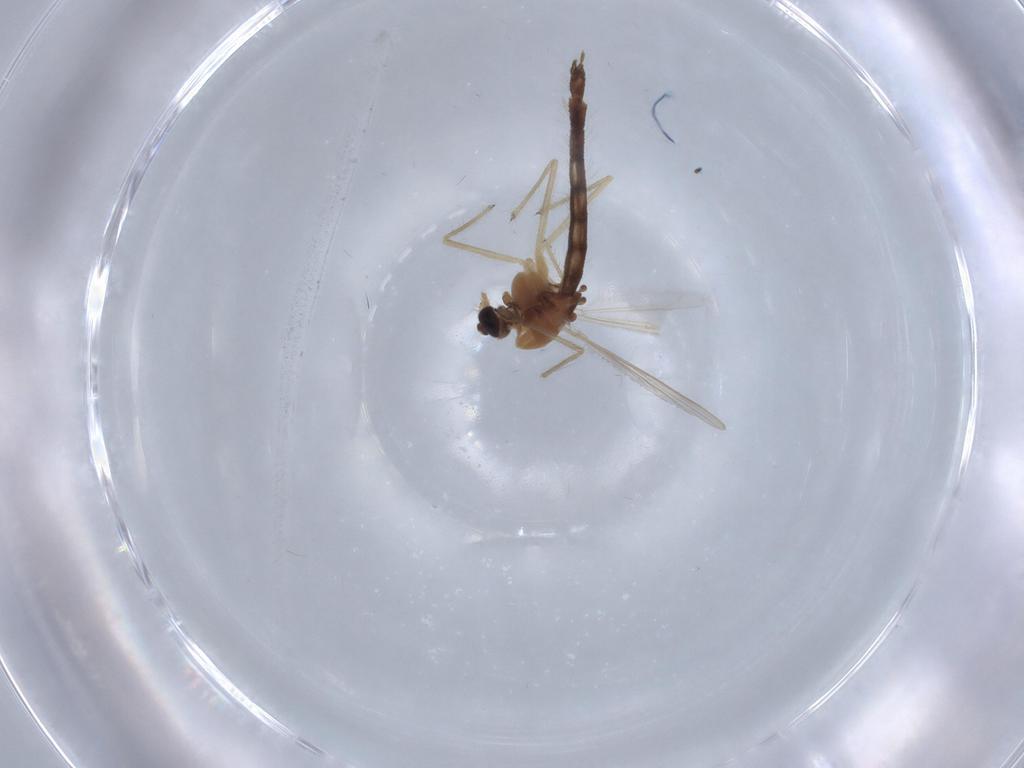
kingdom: Animalia
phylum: Arthropoda
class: Insecta
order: Diptera
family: Chironomidae
